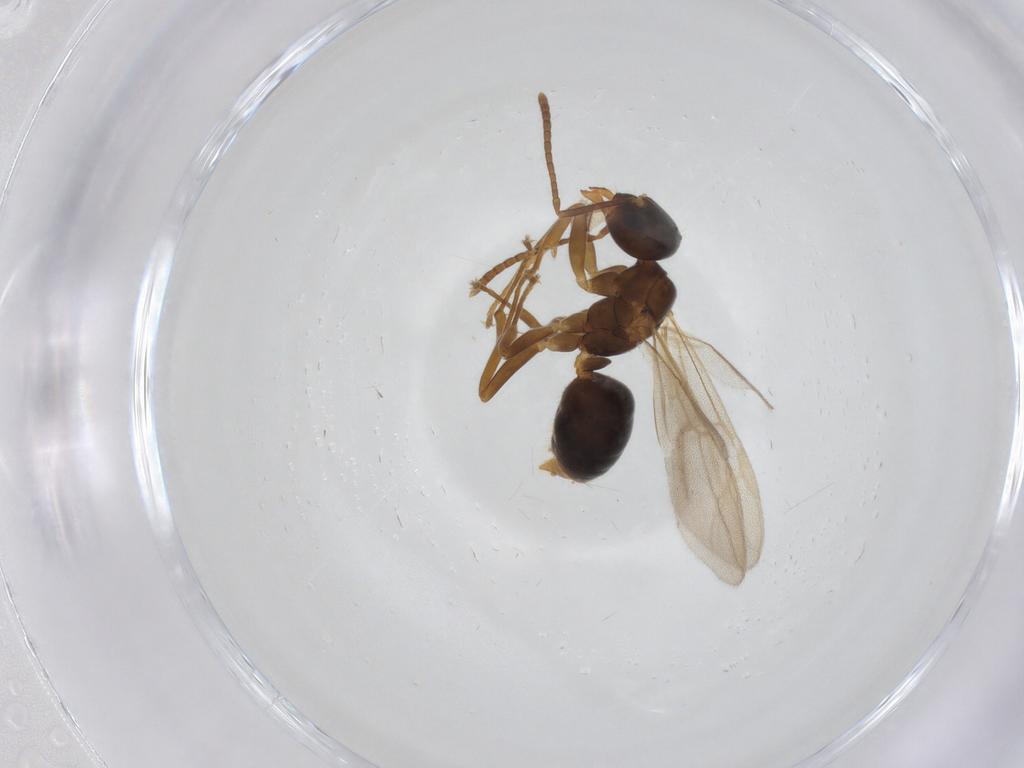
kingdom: Animalia
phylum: Arthropoda
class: Insecta
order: Hymenoptera
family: Formicidae
